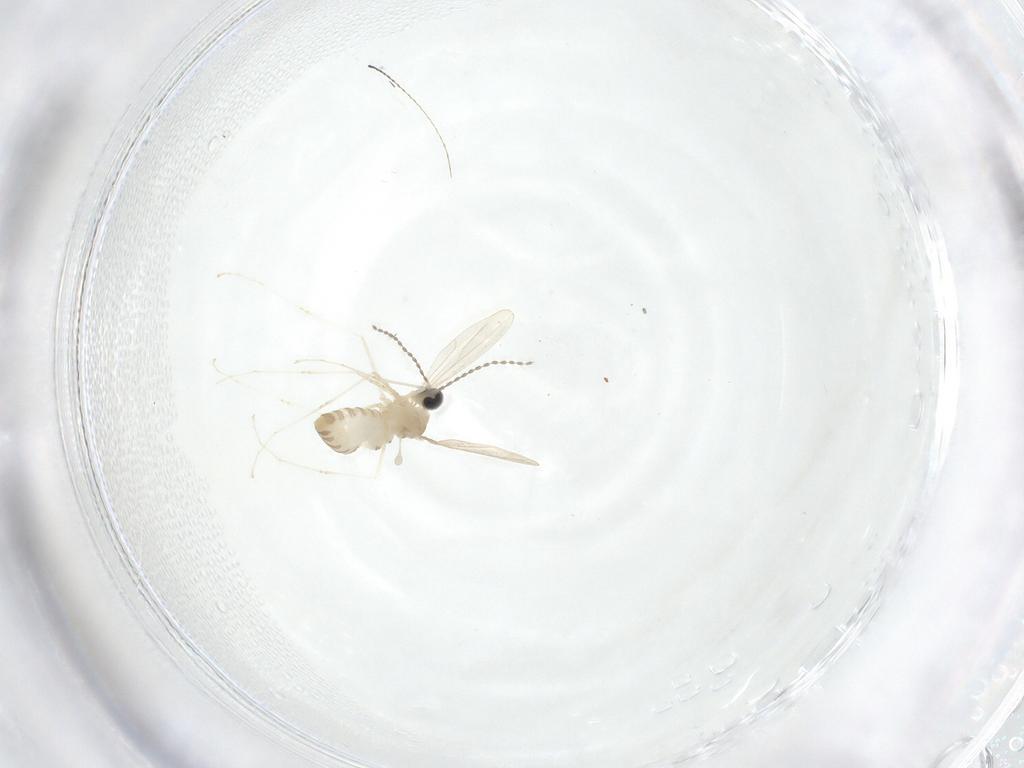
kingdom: Animalia
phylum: Arthropoda
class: Insecta
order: Diptera
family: Cecidomyiidae
